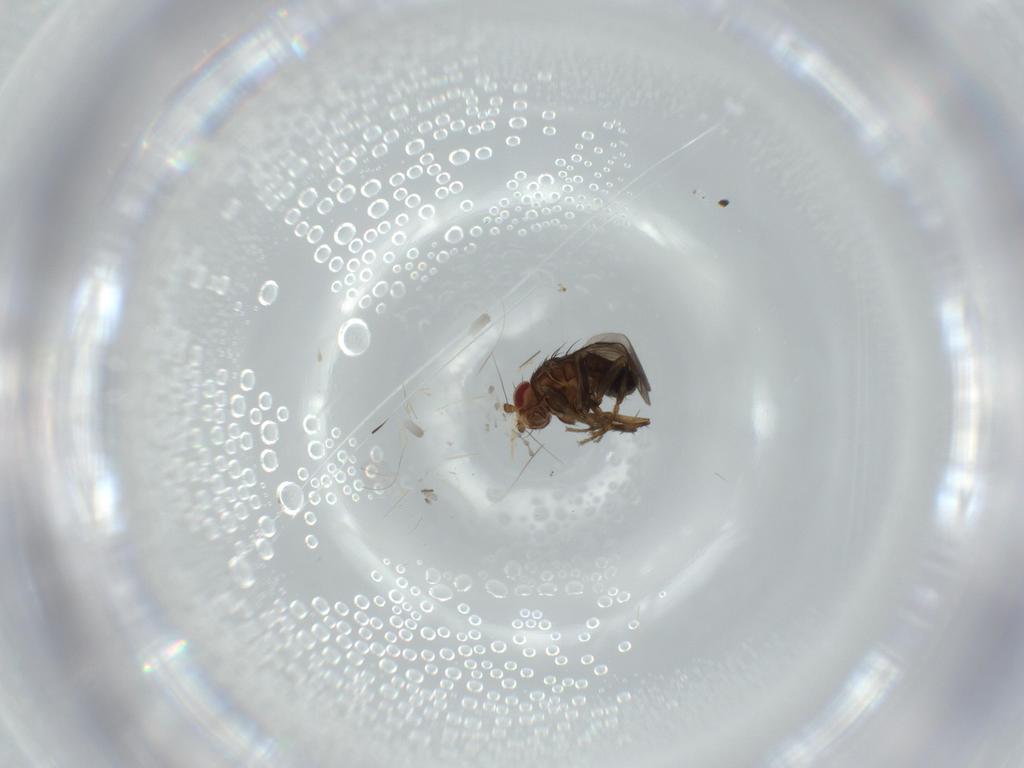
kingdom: Animalia
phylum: Arthropoda
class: Insecta
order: Diptera
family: Chironomidae
